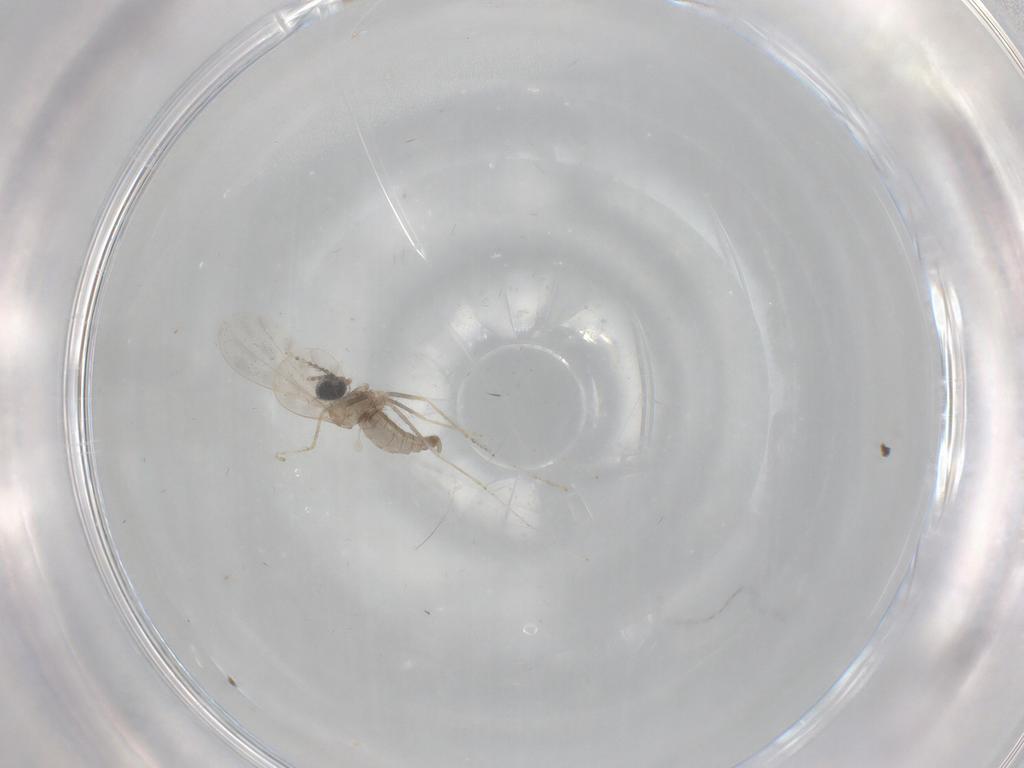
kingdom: Animalia
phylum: Arthropoda
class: Insecta
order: Diptera
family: Cecidomyiidae
